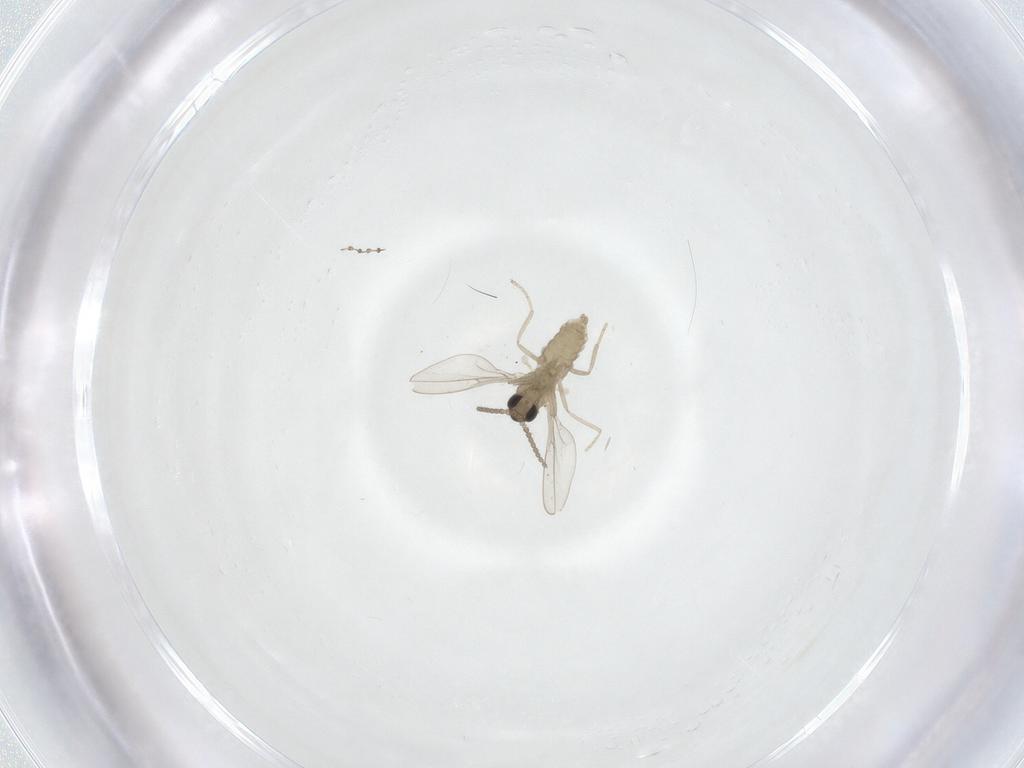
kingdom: Animalia
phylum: Arthropoda
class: Insecta
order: Diptera
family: Cecidomyiidae
